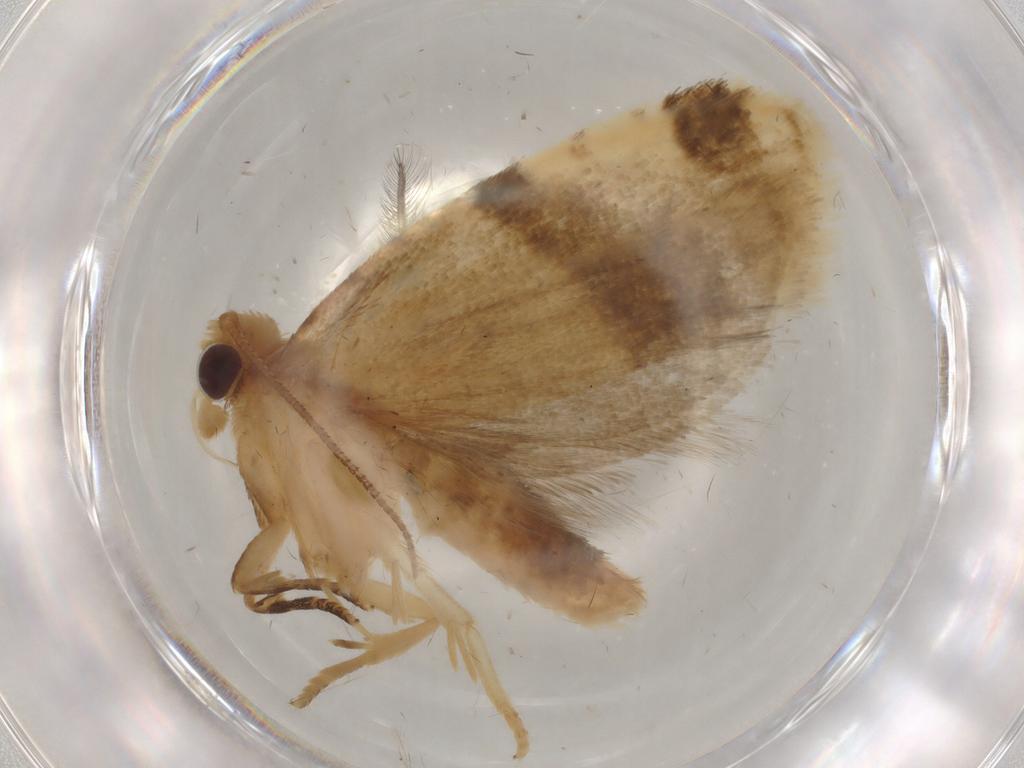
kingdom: Animalia
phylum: Arthropoda
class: Insecta
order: Lepidoptera
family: Tortricidae
